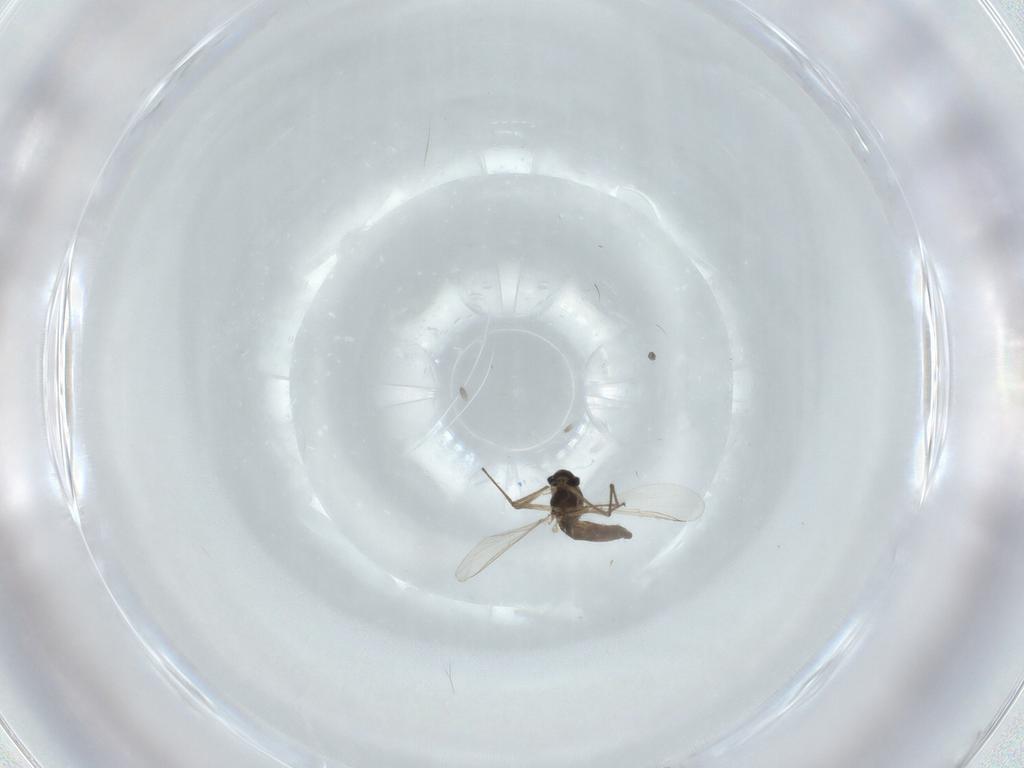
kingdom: Animalia
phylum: Arthropoda
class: Insecta
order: Diptera
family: Chironomidae
